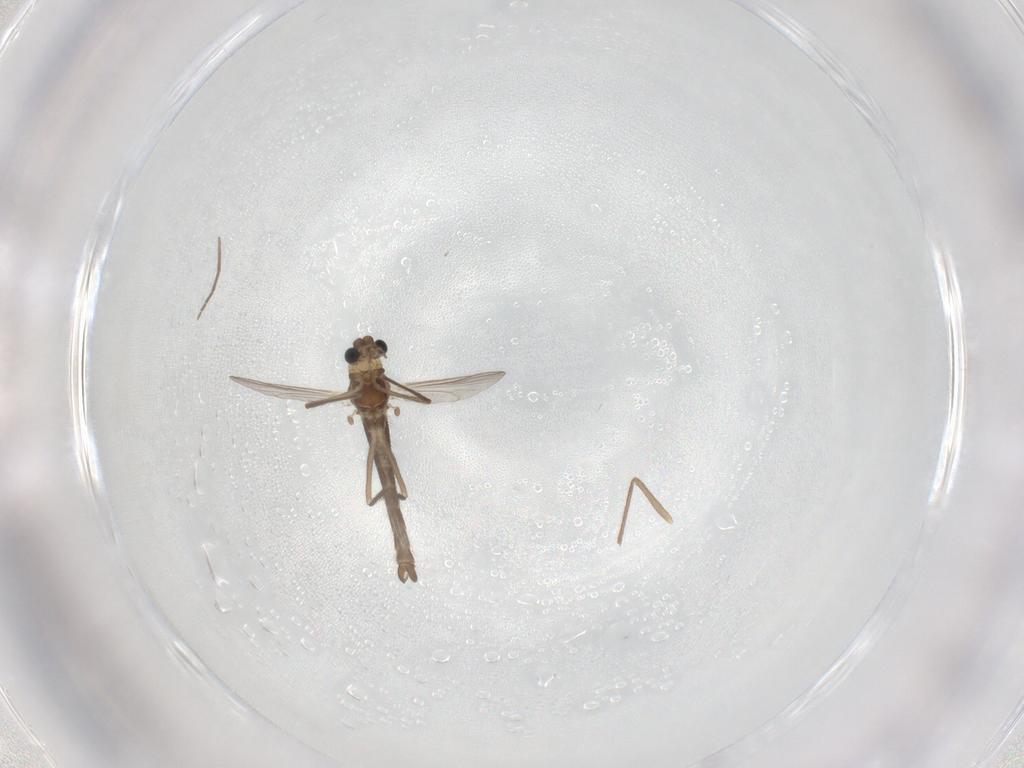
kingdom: Animalia
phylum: Arthropoda
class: Insecta
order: Diptera
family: Chironomidae
